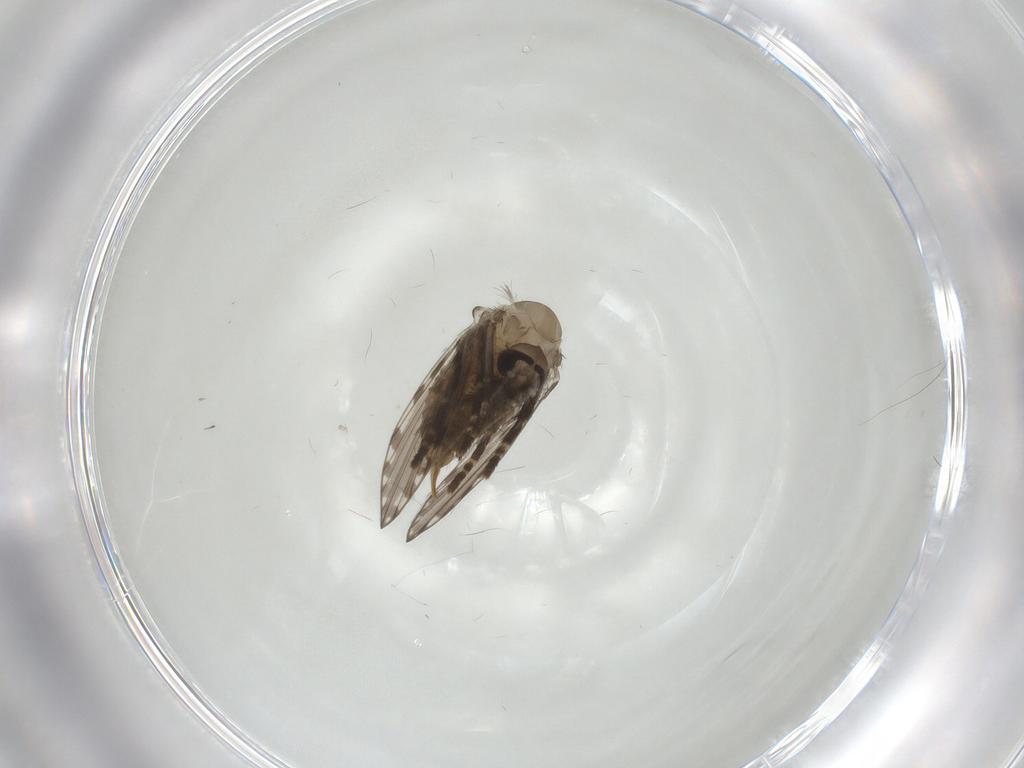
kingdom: Animalia
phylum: Arthropoda
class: Insecta
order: Diptera
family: Psychodidae
